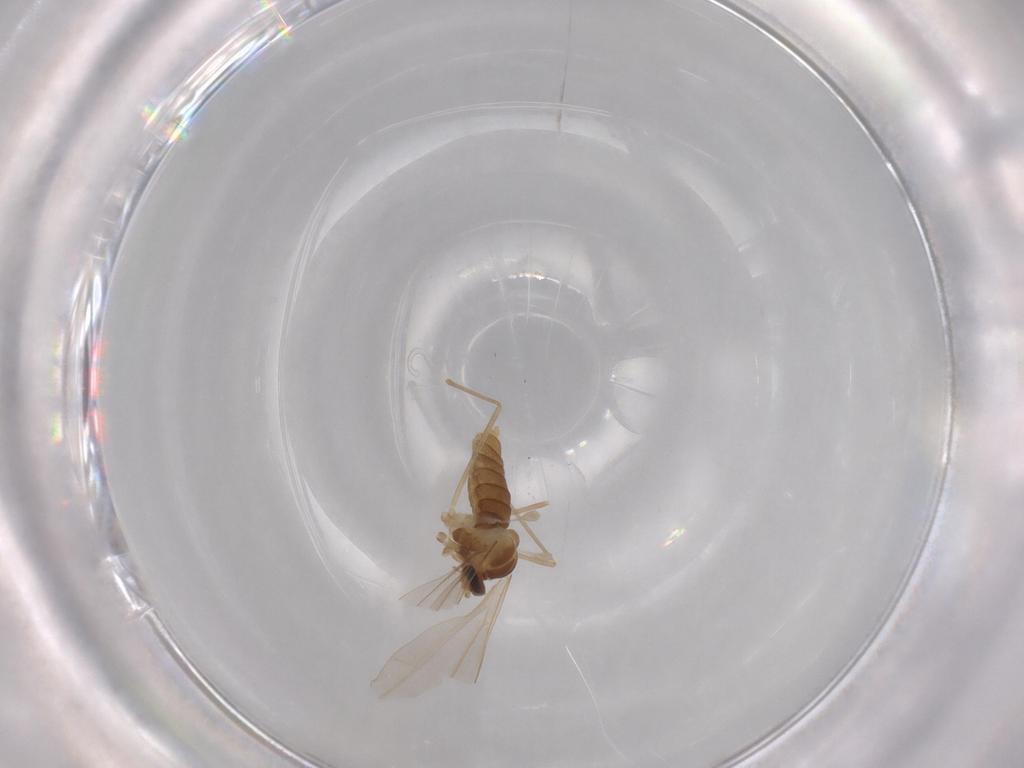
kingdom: Animalia
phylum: Arthropoda
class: Insecta
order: Diptera
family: Cecidomyiidae
